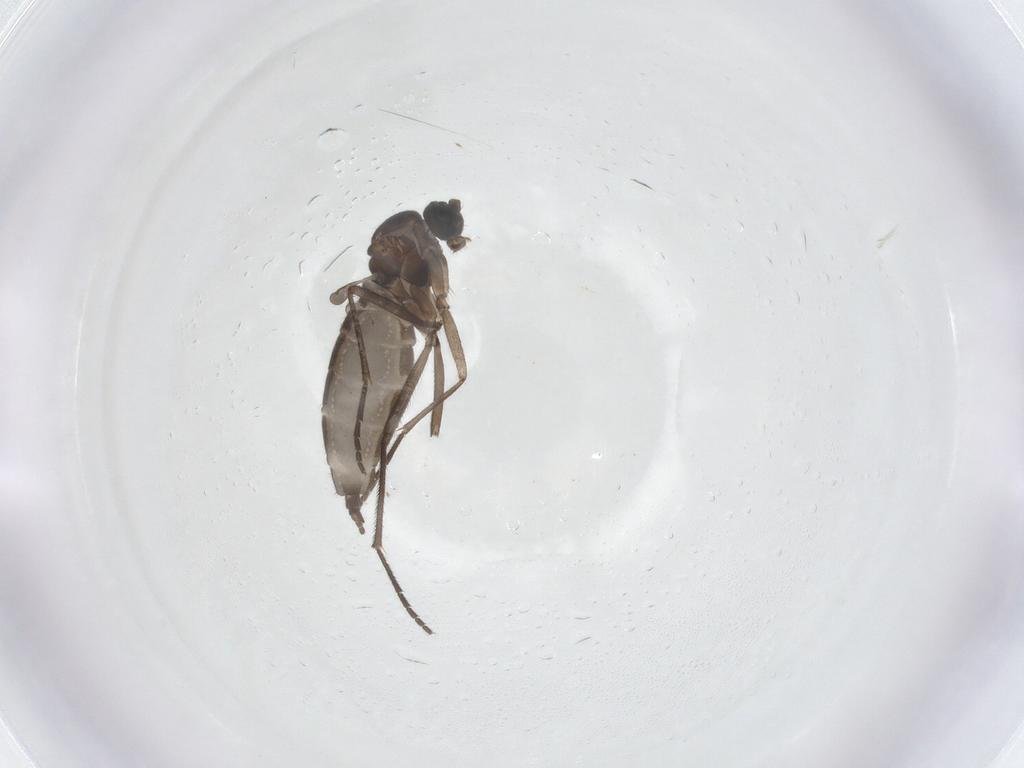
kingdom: Animalia
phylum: Arthropoda
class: Insecta
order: Diptera
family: Sciaridae
